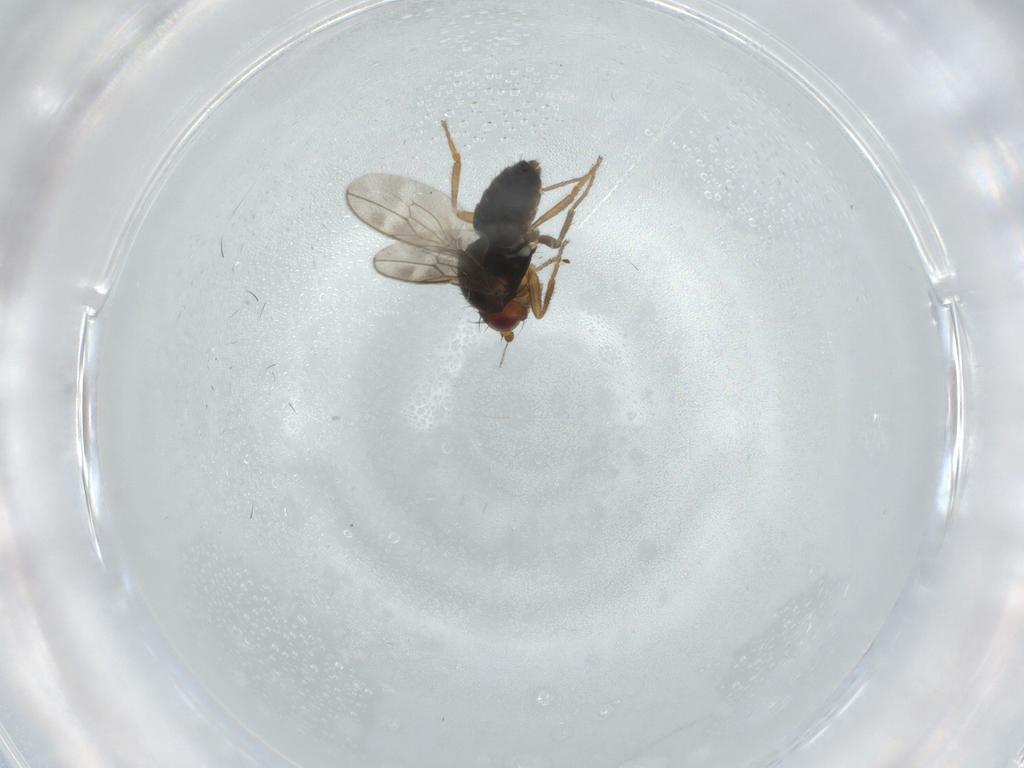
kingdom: Animalia
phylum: Arthropoda
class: Insecta
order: Diptera
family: Sphaeroceridae
